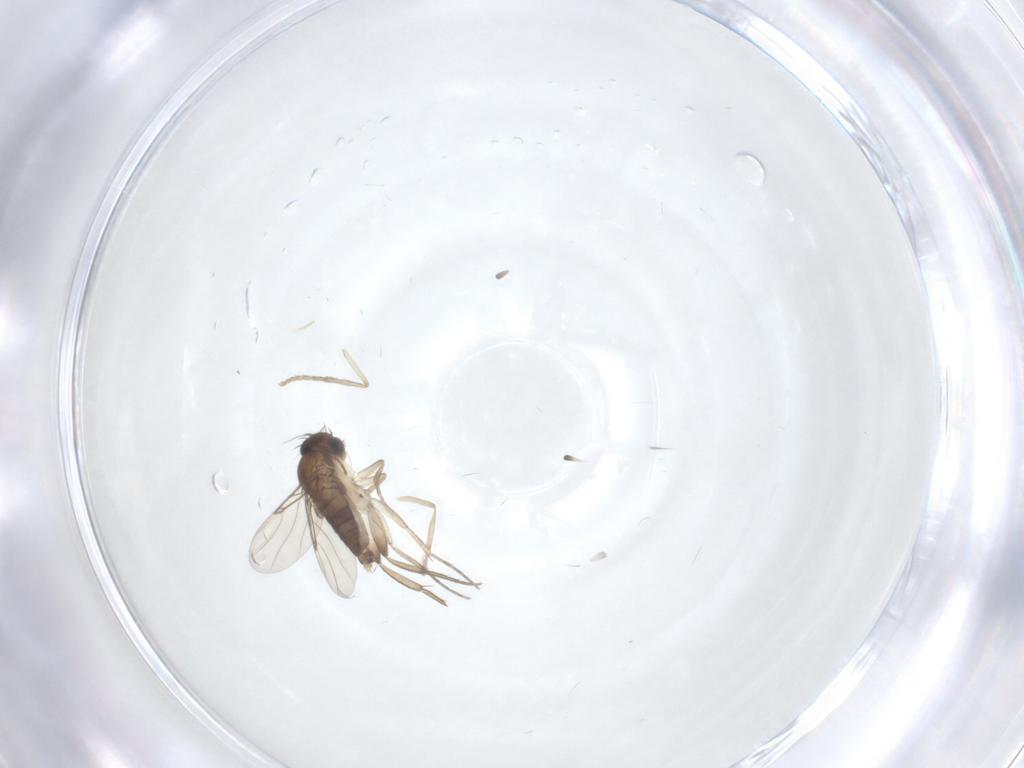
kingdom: Animalia
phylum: Arthropoda
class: Insecta
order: Diptera
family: Phoridae
